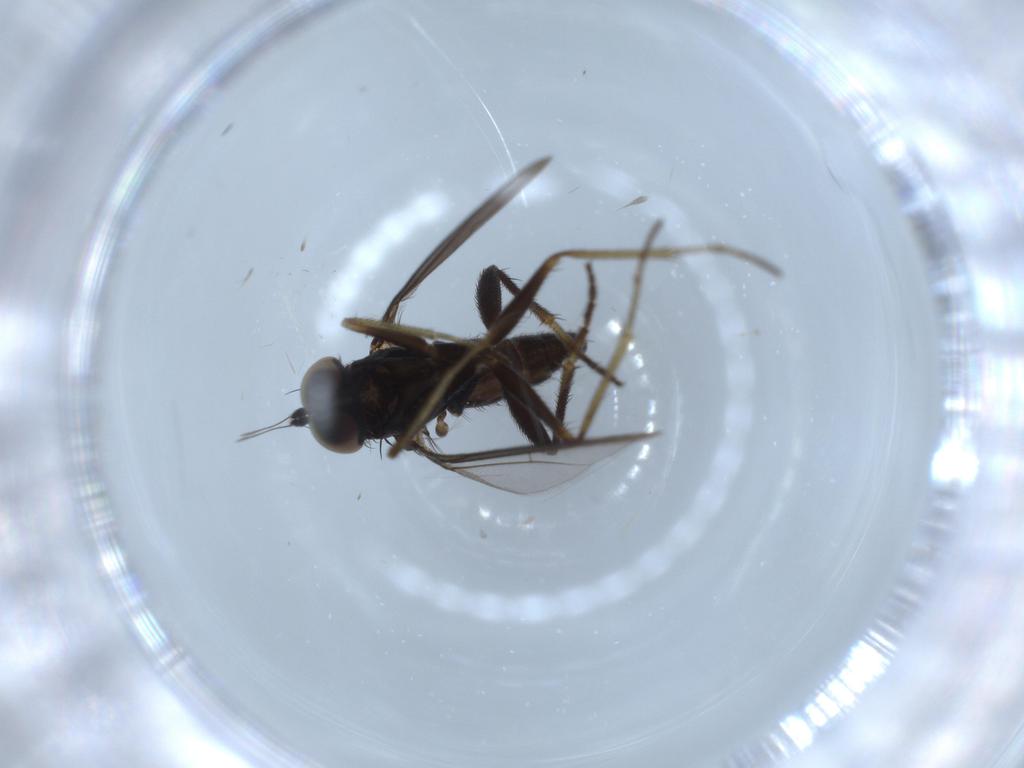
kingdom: Animalia
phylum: Arthropoda
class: Insecta
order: Diptera
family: Dolichopodidae
